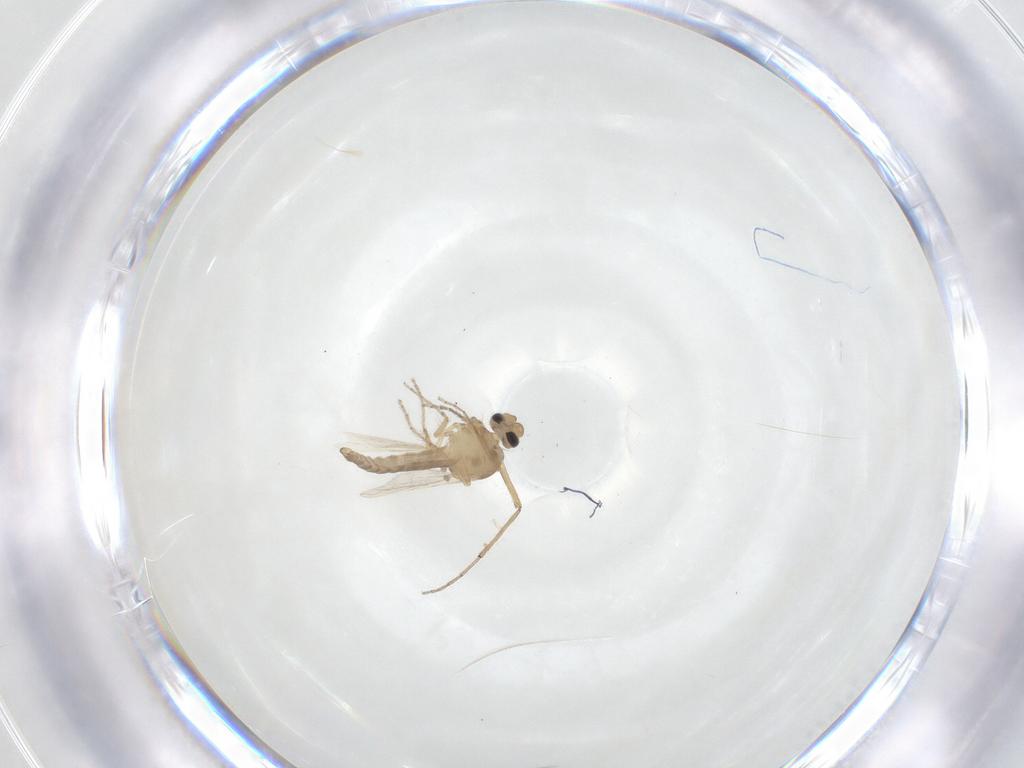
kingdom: Animalia
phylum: Arthropoda
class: Insecta
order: Diptera
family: Ceratopogonidae
